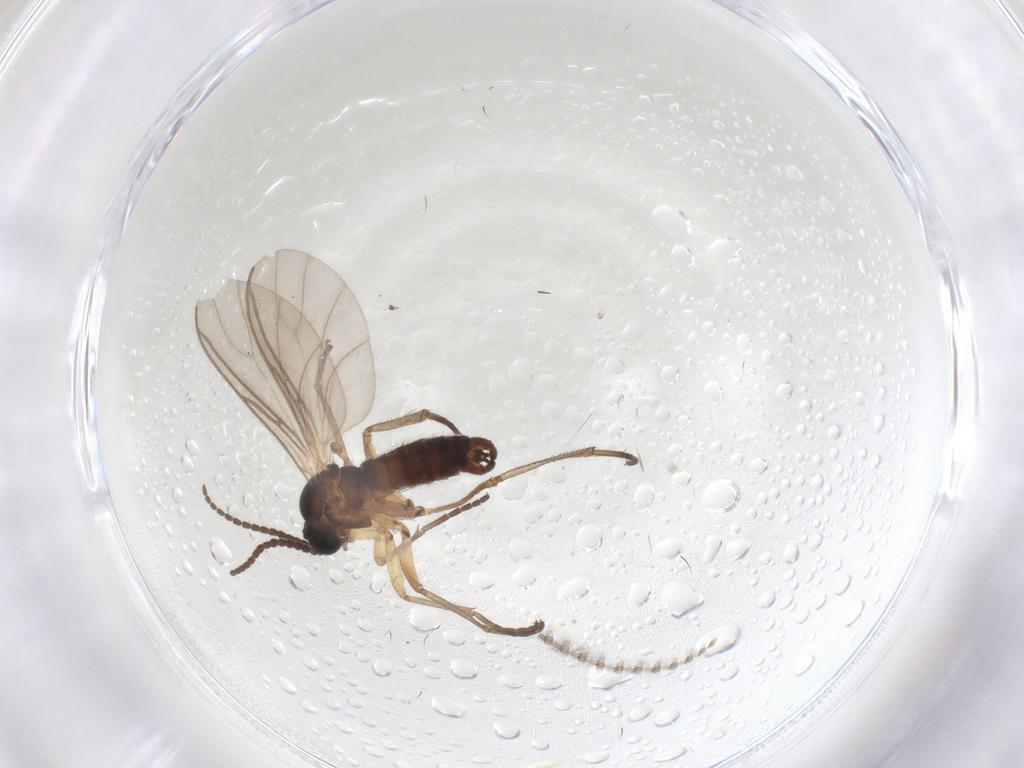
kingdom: Animalia
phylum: Arthropoda
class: Insecta
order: Diptera
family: Sciaridae
